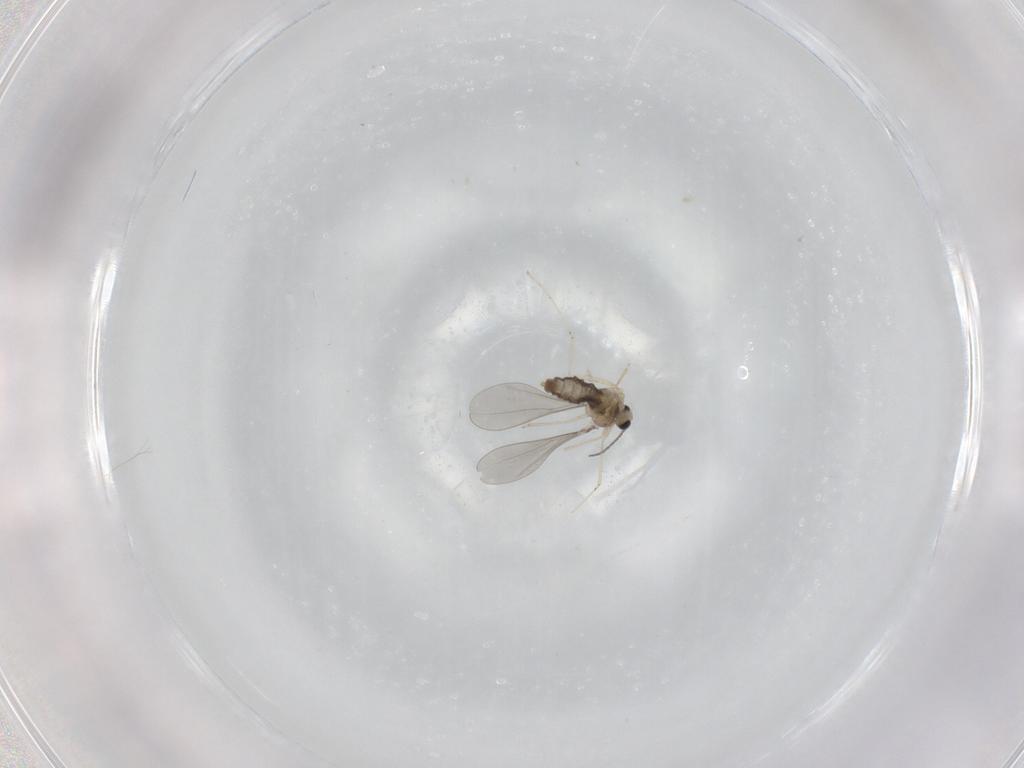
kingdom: Animalia
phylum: Arthropoda
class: Insecta
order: Diptera
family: Cecidomyiidae
